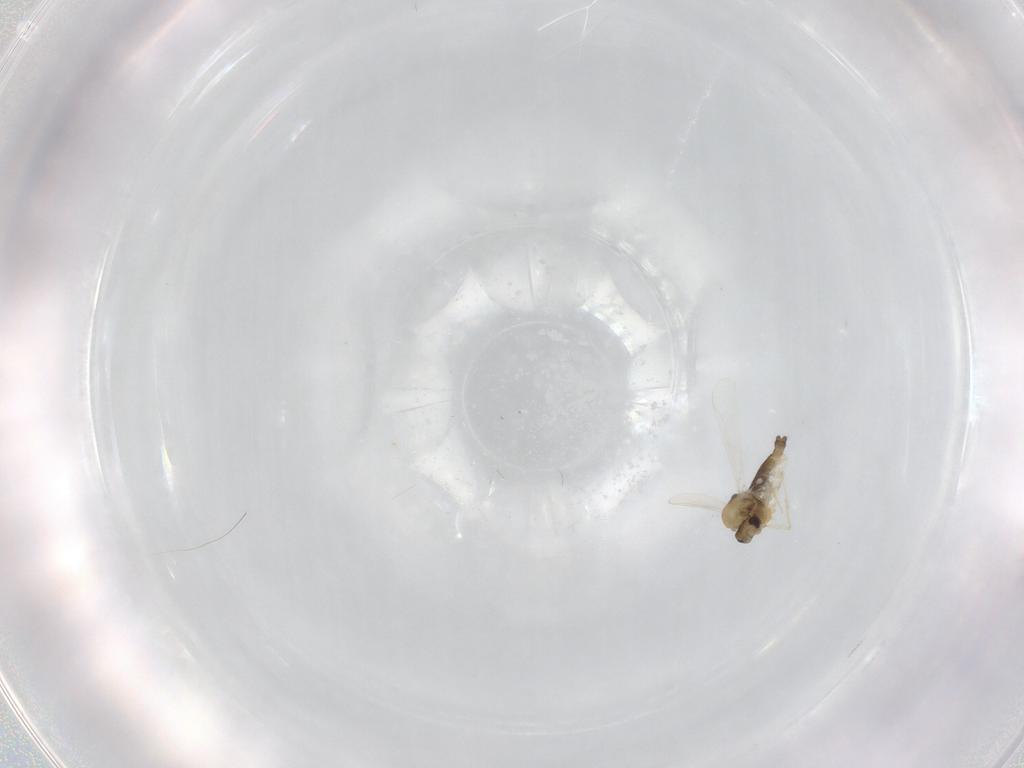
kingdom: Animalia
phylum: Arthropoda
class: Insecta
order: Diptera
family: Chironomidae
